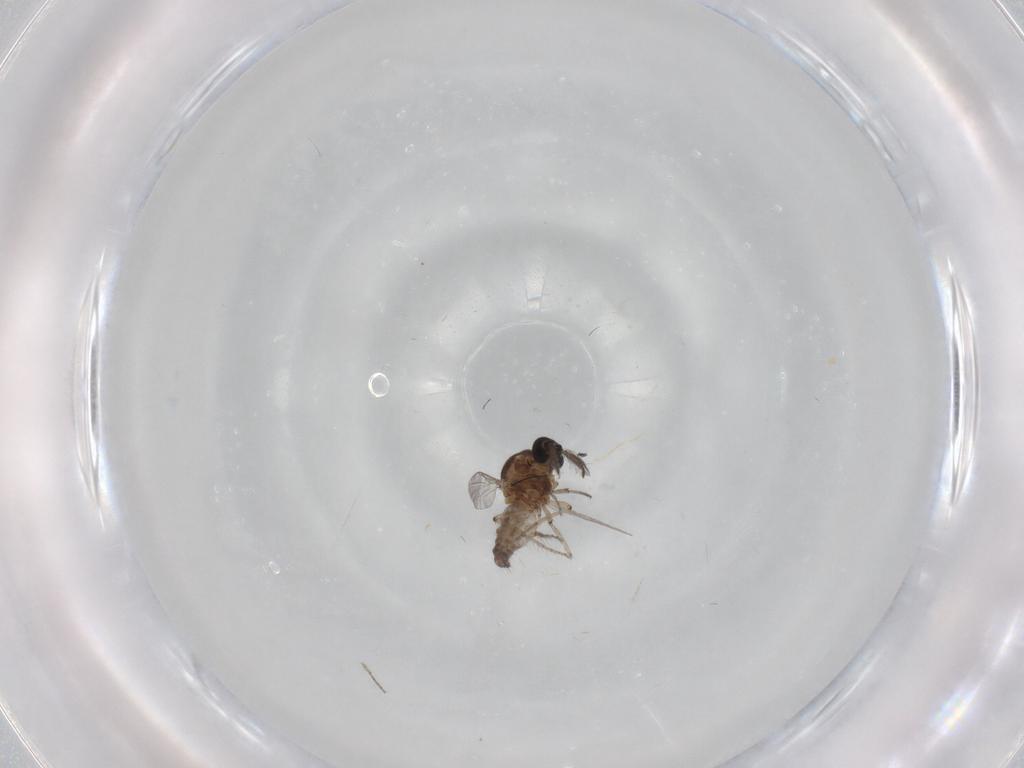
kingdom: Animalia
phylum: Arthropoda
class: Insecta
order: Diptera
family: Ceratopogonidae
